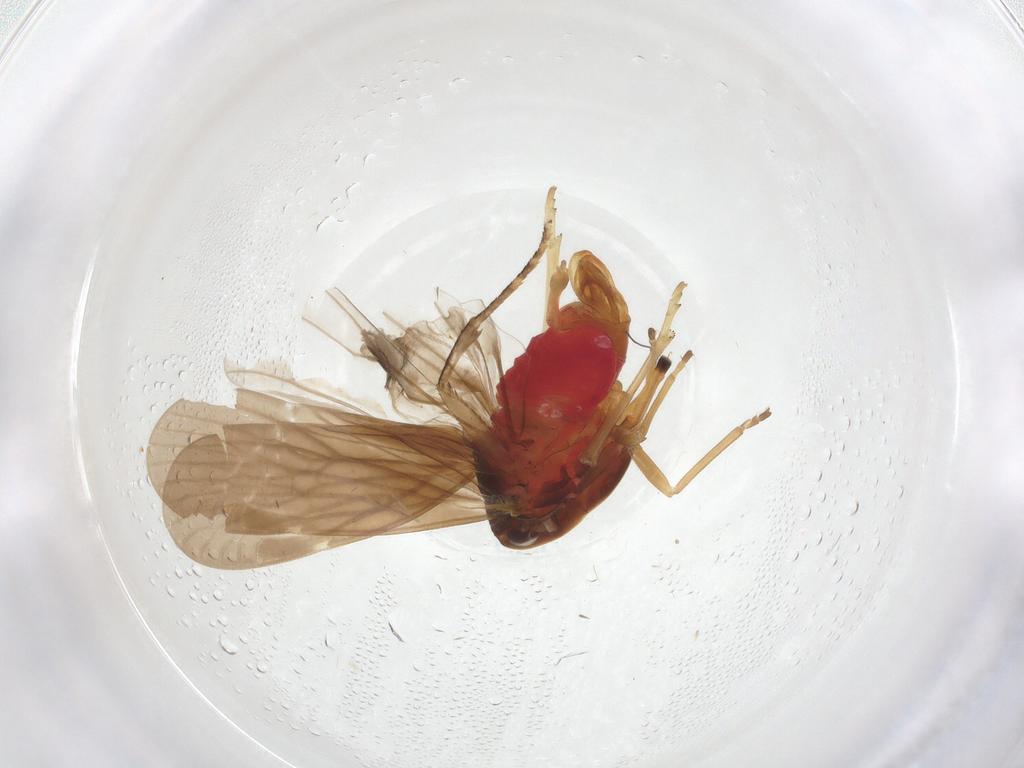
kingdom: Animalia
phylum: Arthropoda
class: Insecta
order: Hemiptera
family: Derbidae
